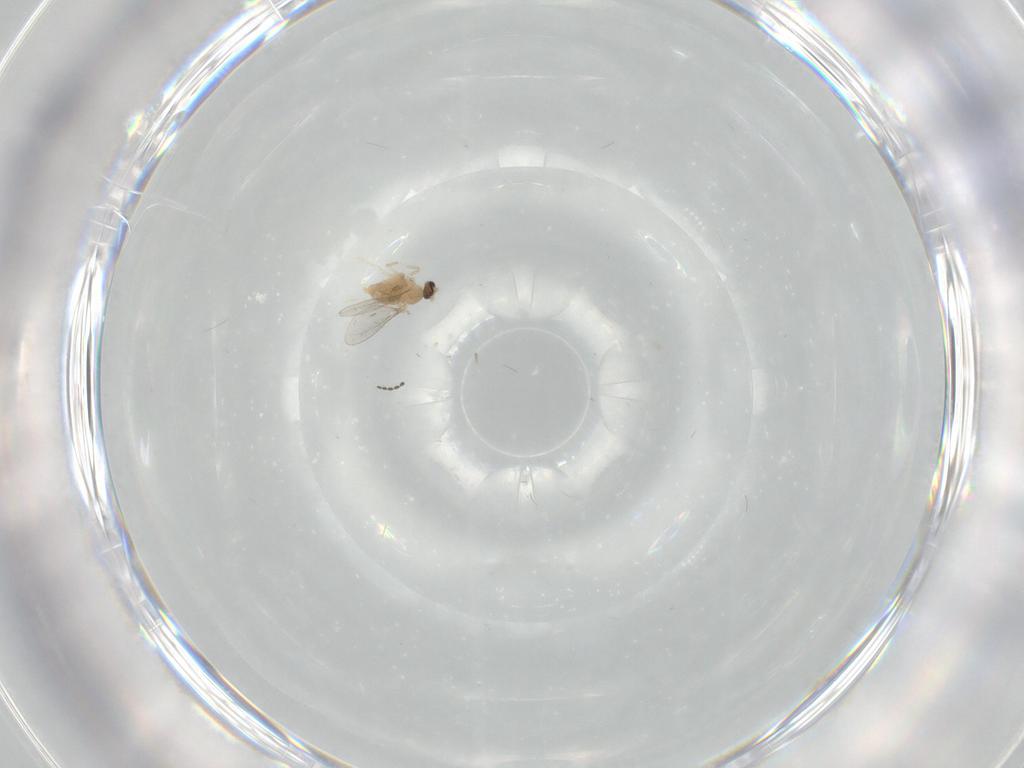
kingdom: Animalia
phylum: Arthropoda
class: Insecta
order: Diptera
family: Cecidomyiidae
